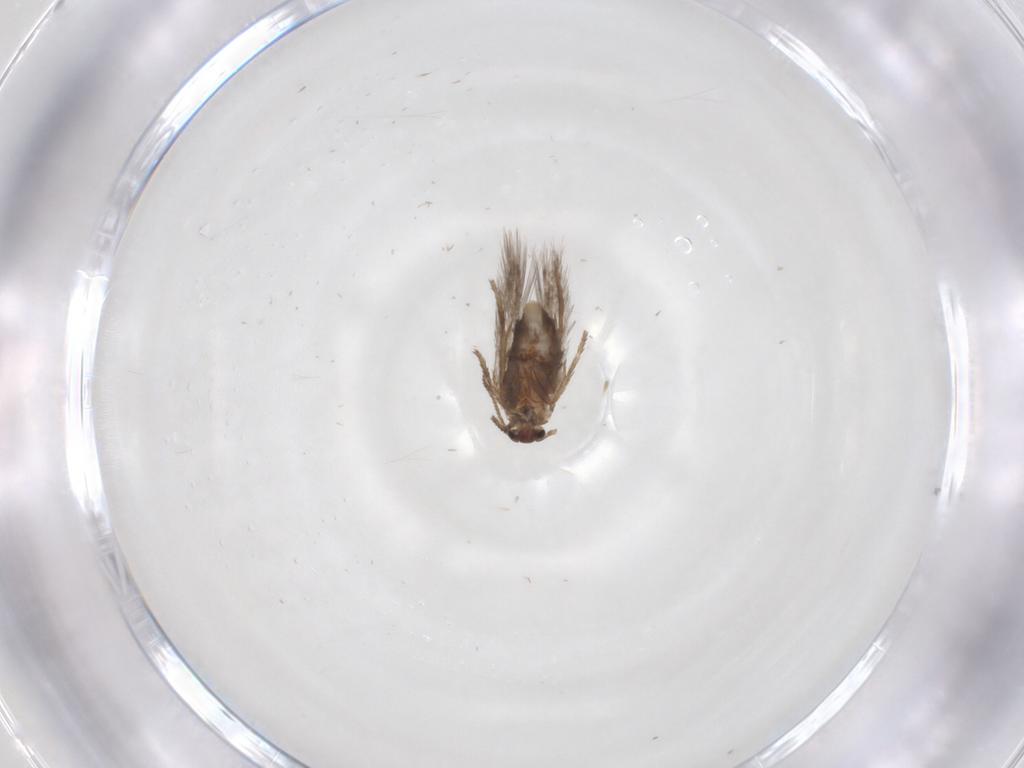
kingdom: Animalia
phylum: Arthropoda
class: Insecta
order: Lepidoptera
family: Nepticulidae
